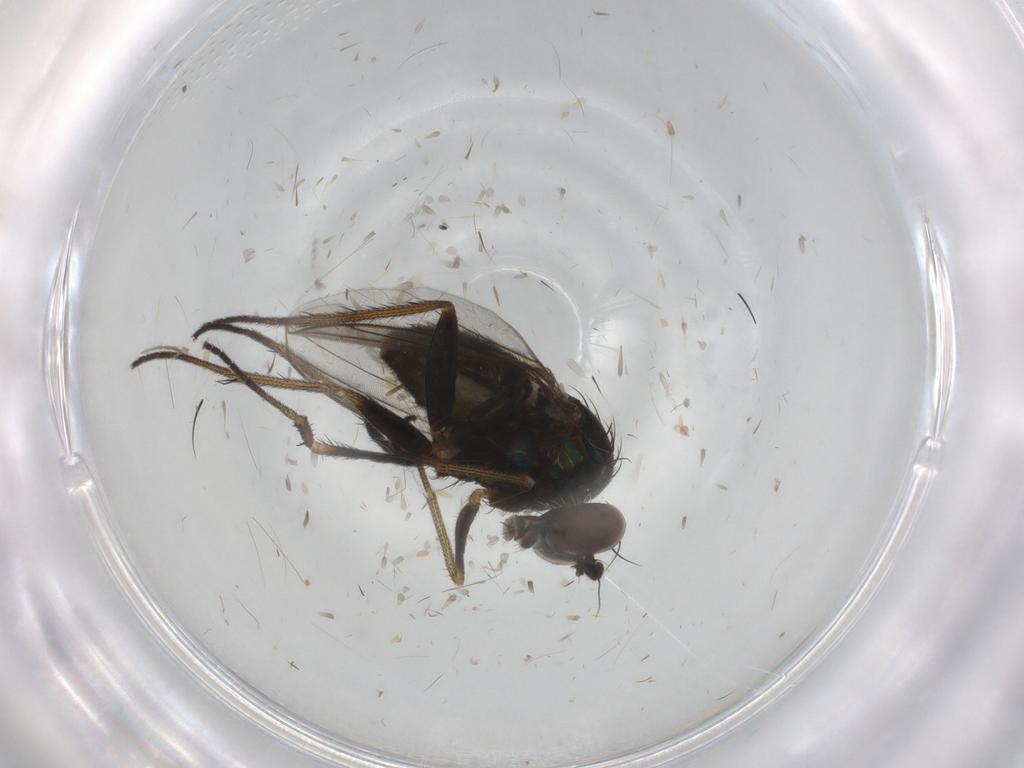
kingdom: Animalia
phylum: Arthropoda
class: Insecta
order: Diptera
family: Dolichopodidae
